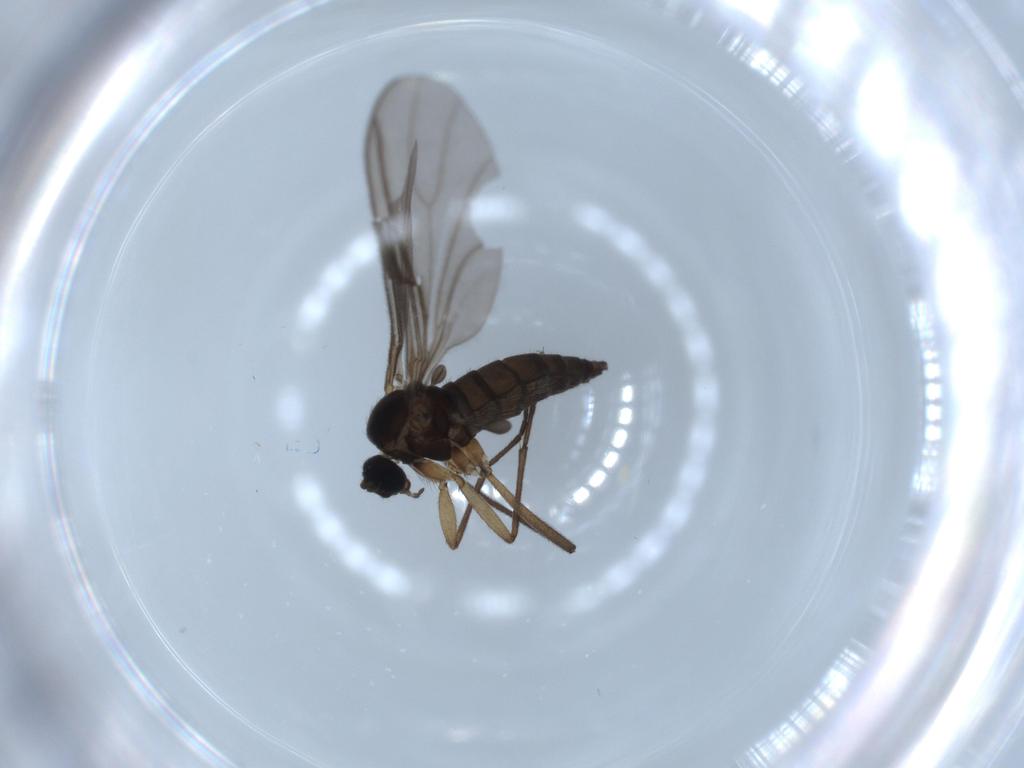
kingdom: Animalia
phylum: Arthropoda
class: Insecta
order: Diptera
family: Sciaridae
